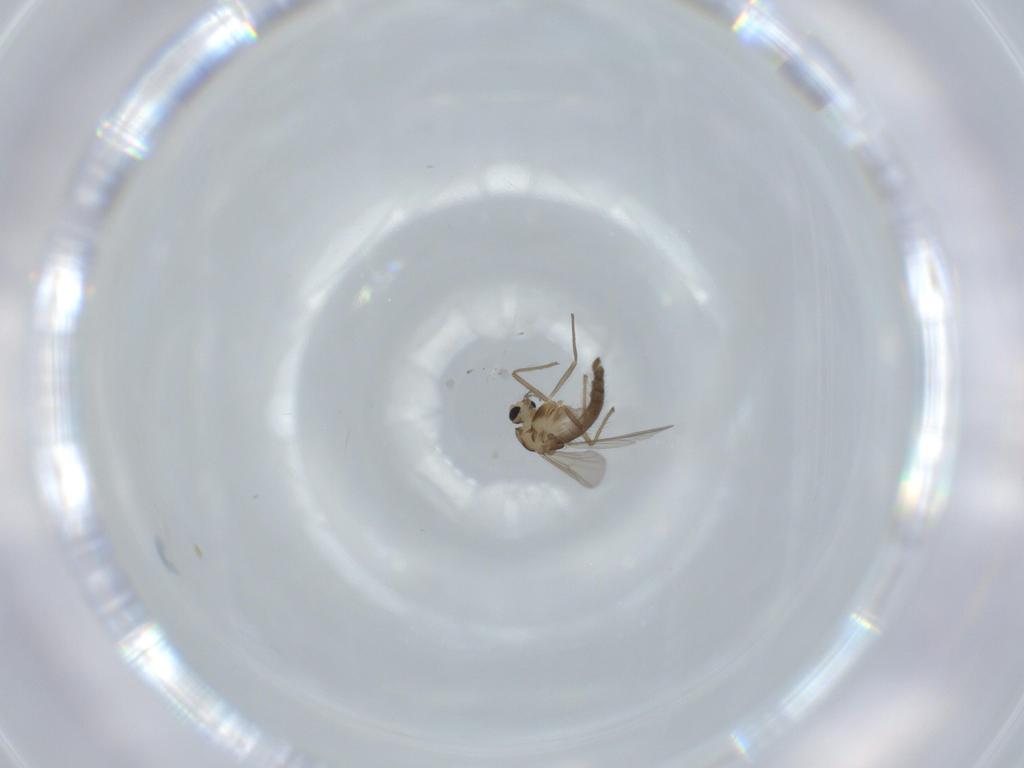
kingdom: Animalia
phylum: Arthropoda
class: Insecta
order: Diptera
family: Chironomidae
